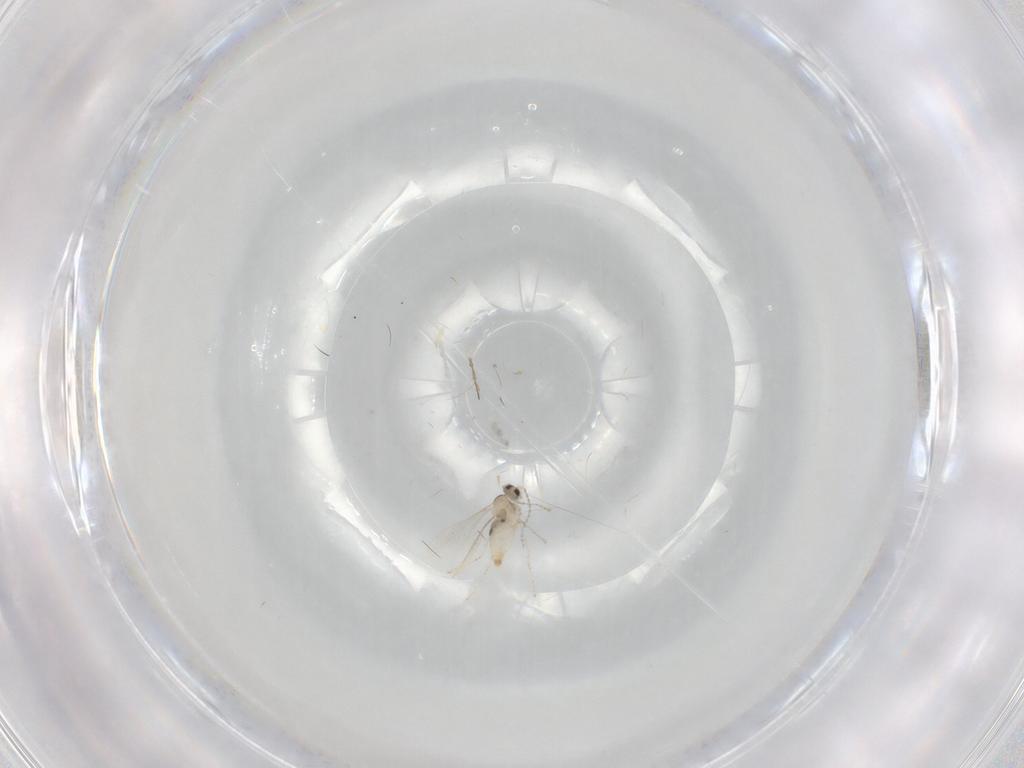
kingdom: Animalia
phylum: Arthropoda
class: Insecta
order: Diptera
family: Cecidomyiidae
